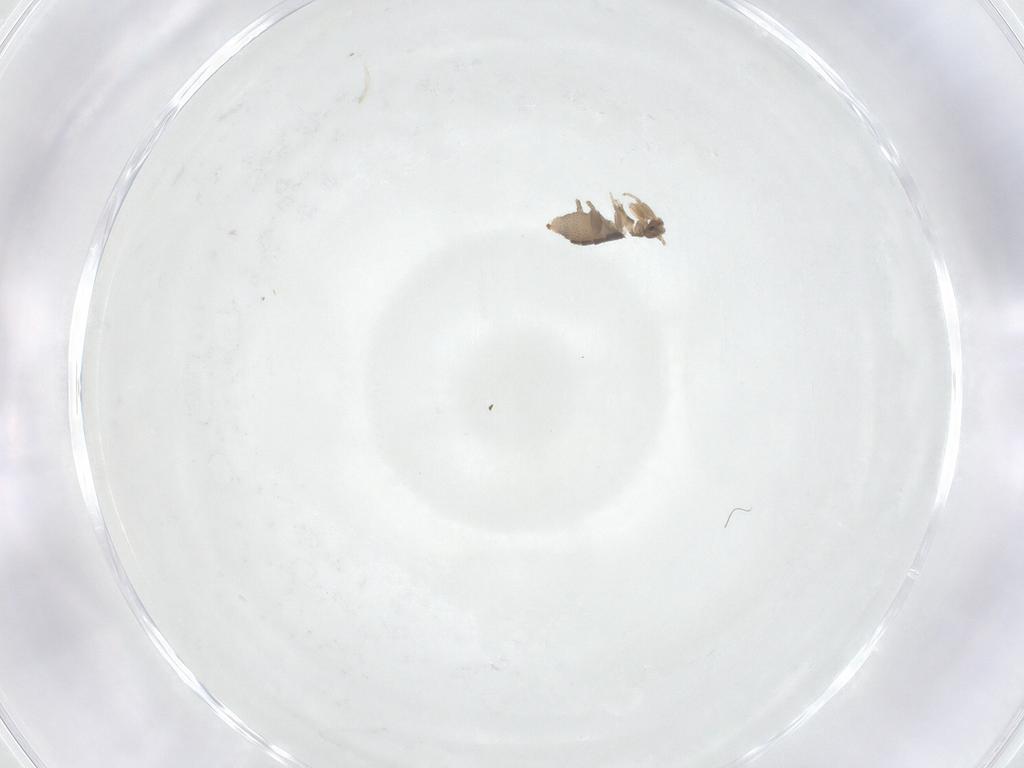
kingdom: Animalia
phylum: Arthropoda
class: Insecta
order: Diptera
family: Phoridae
